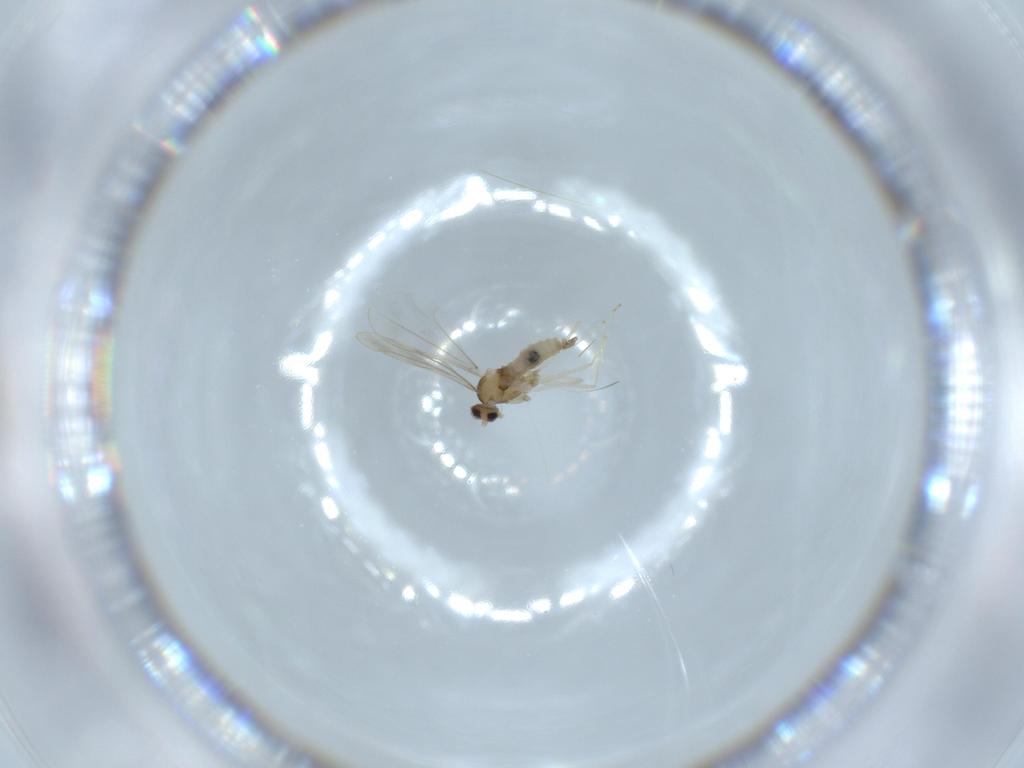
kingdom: Animalia
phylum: Arthropoda
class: Insecta
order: Diptera
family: Cecidomyiidae
